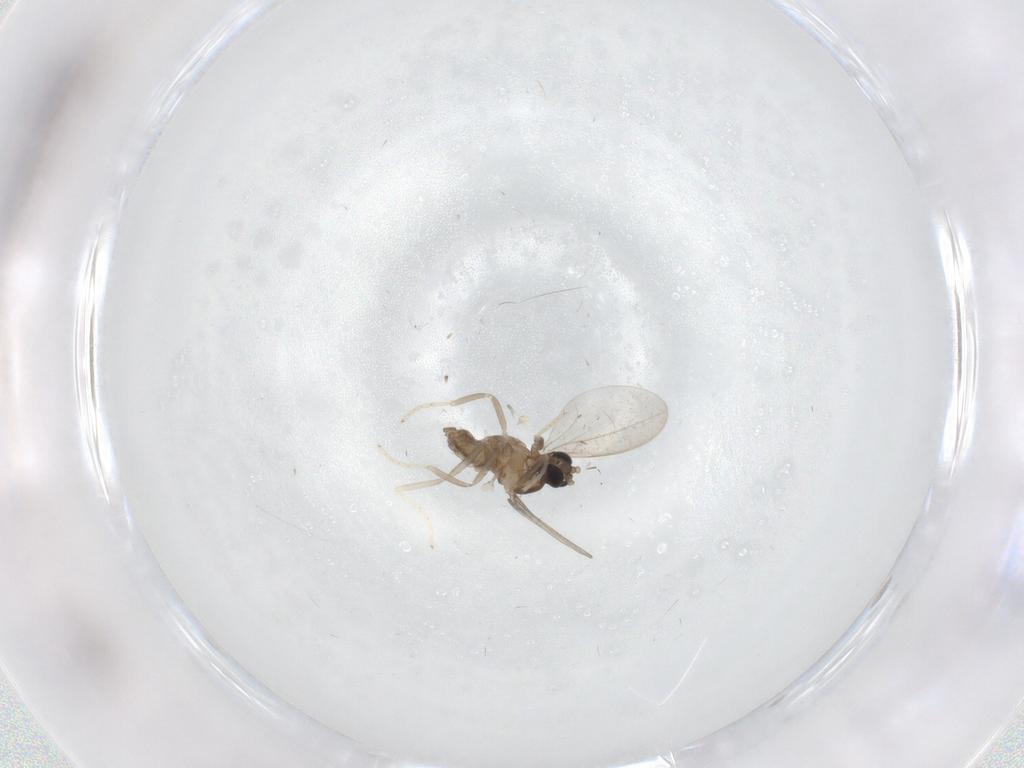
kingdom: Animalia
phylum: Arthropoda
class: Insecta
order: Diptera
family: Cecidomyiidae
